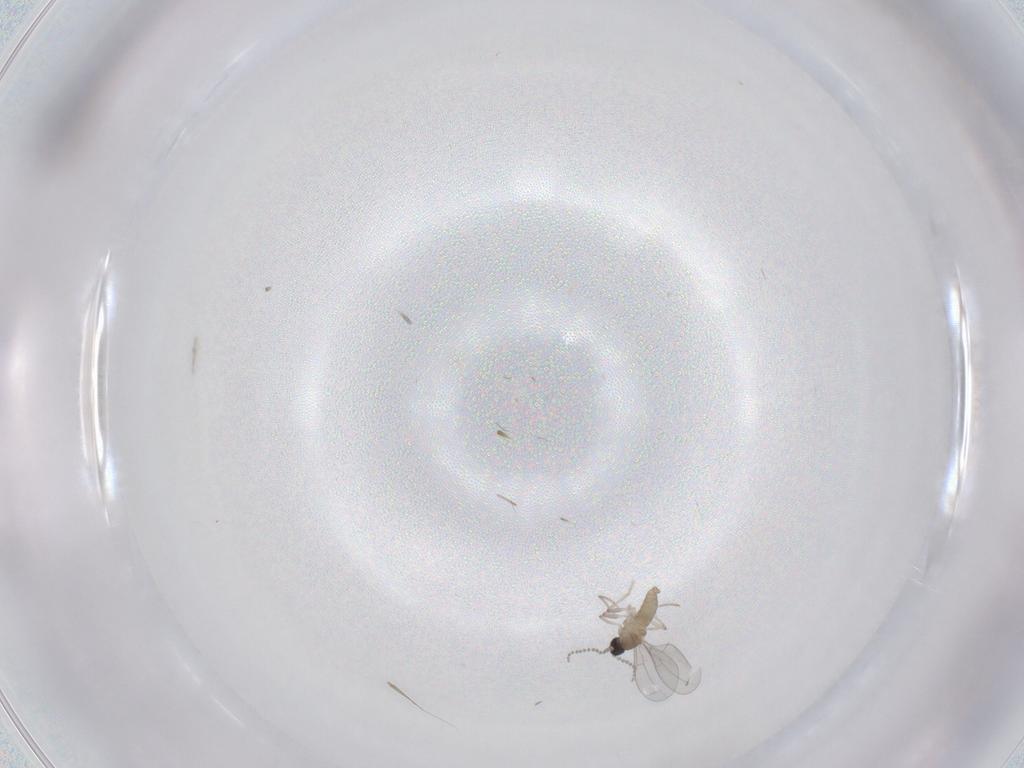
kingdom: Animalia
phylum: Arthropoda
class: Insecta
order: Diptera
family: Cecidomyiidae
